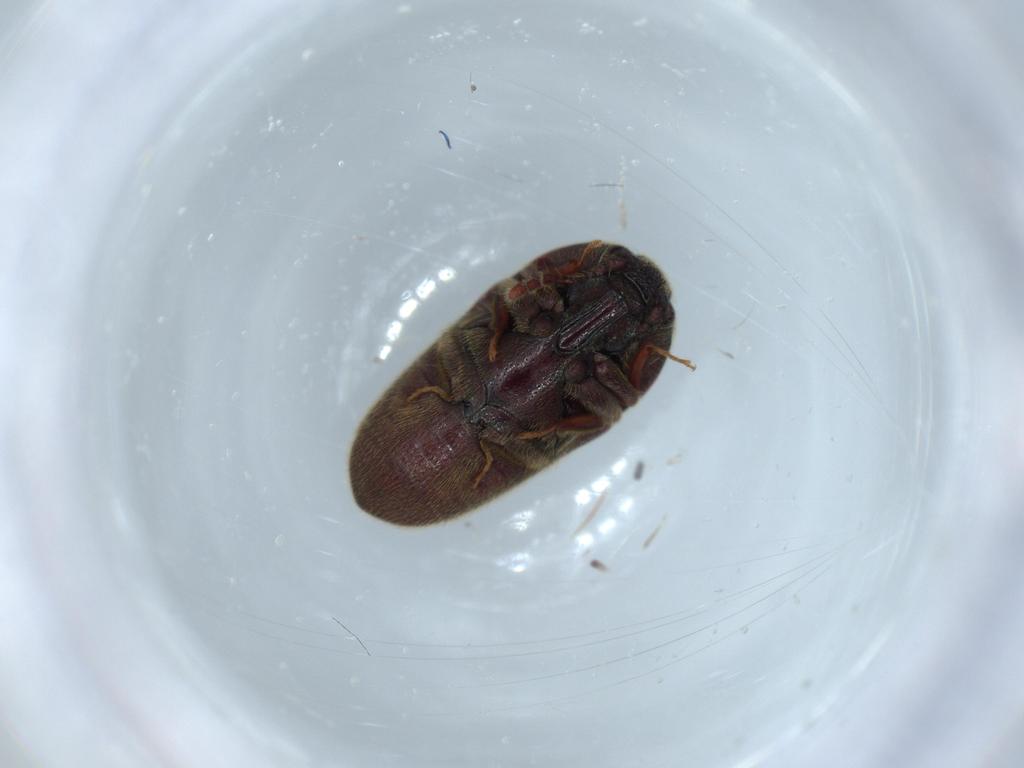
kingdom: Animalia
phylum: Arthropoda
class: Insecta
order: Coleoptera
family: Throscidae
